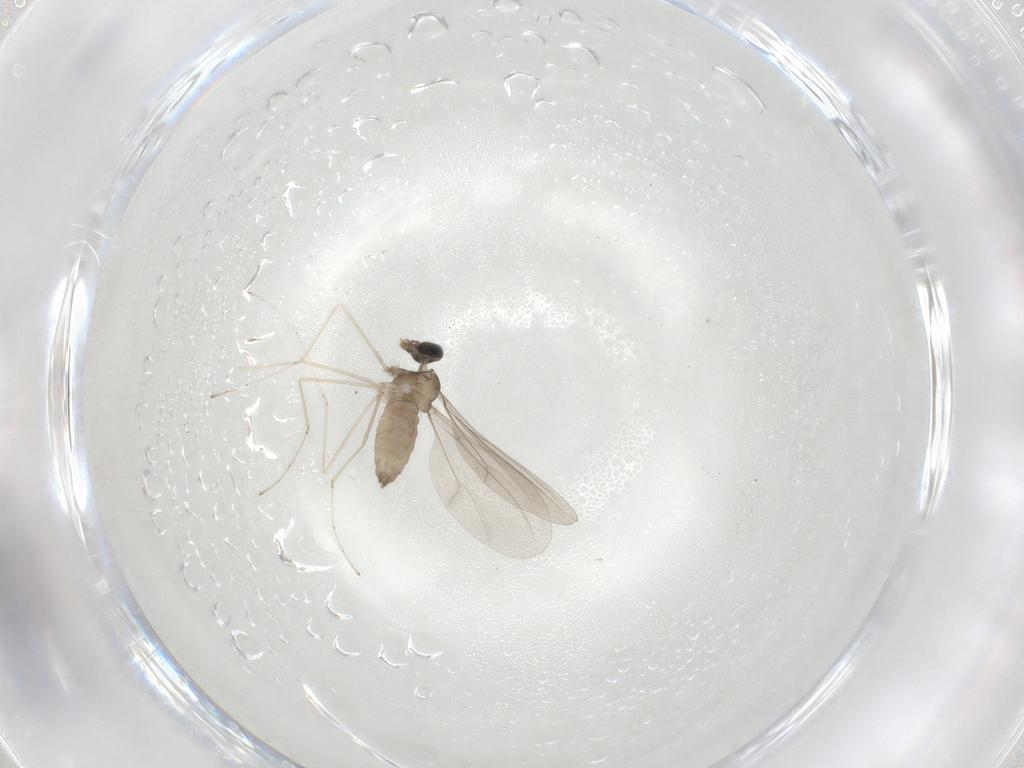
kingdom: Animalia
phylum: Arthropoda
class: Insecta
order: Diptera
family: Cecidomyiidae
